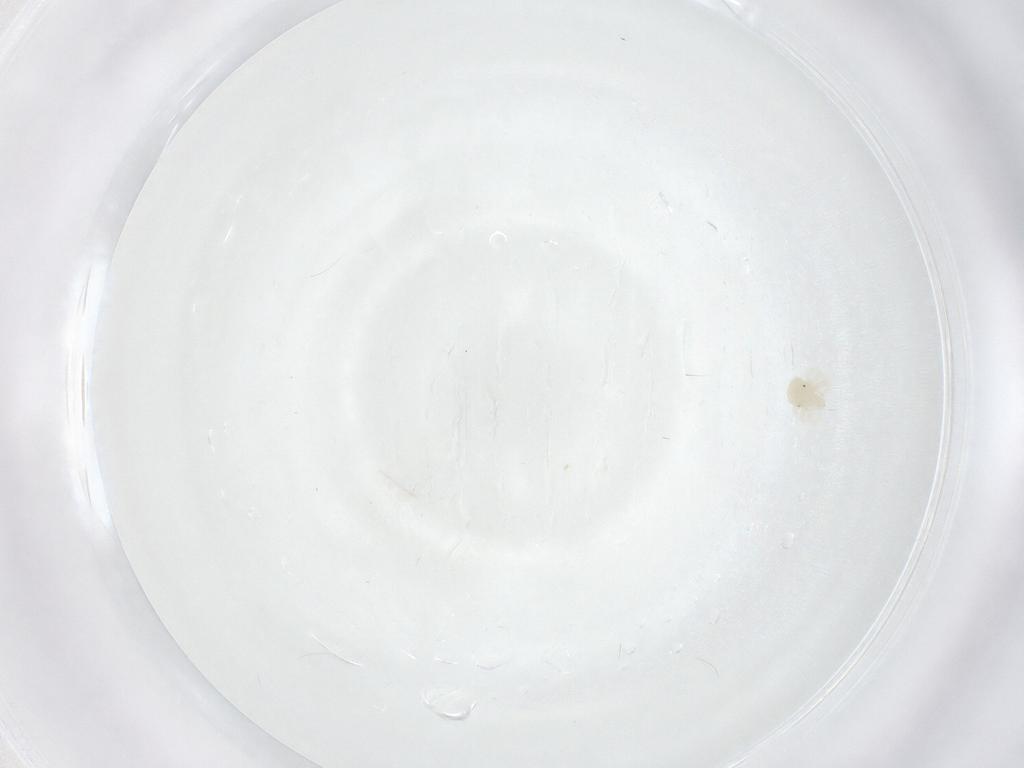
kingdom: Animalia
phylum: Arthropoda
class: Arachnida
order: Trombidiformes
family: Anystidae
